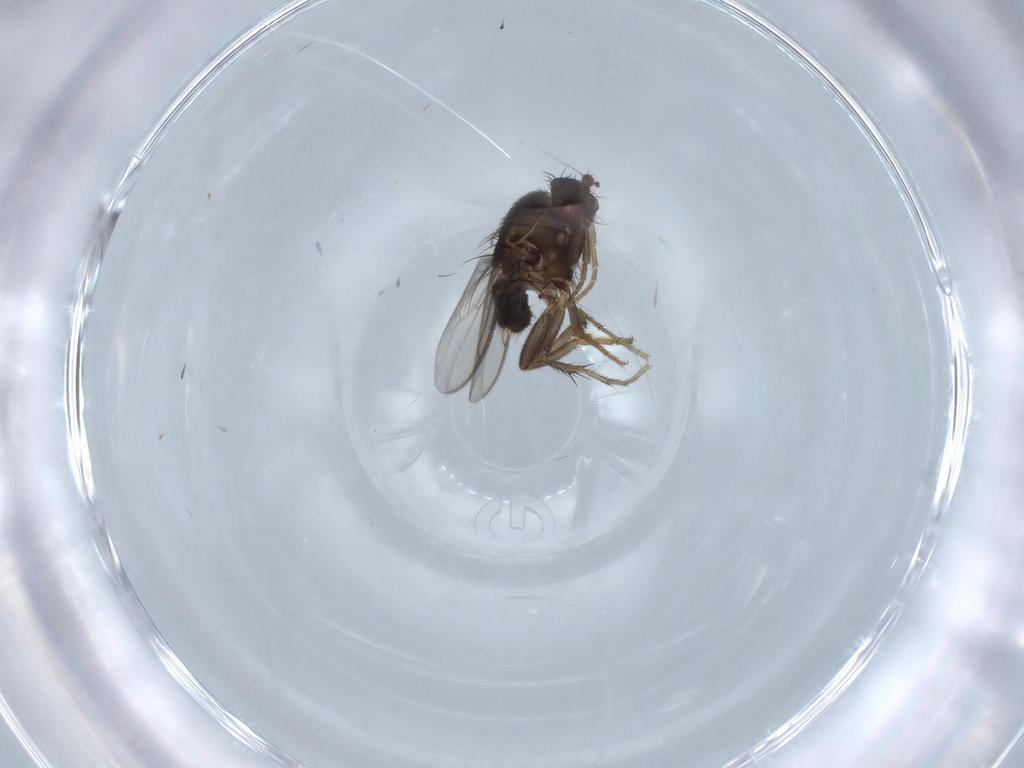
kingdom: Animalia
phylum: Arthropoda
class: Insecta
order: Diptera
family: Sphaeroceridae
